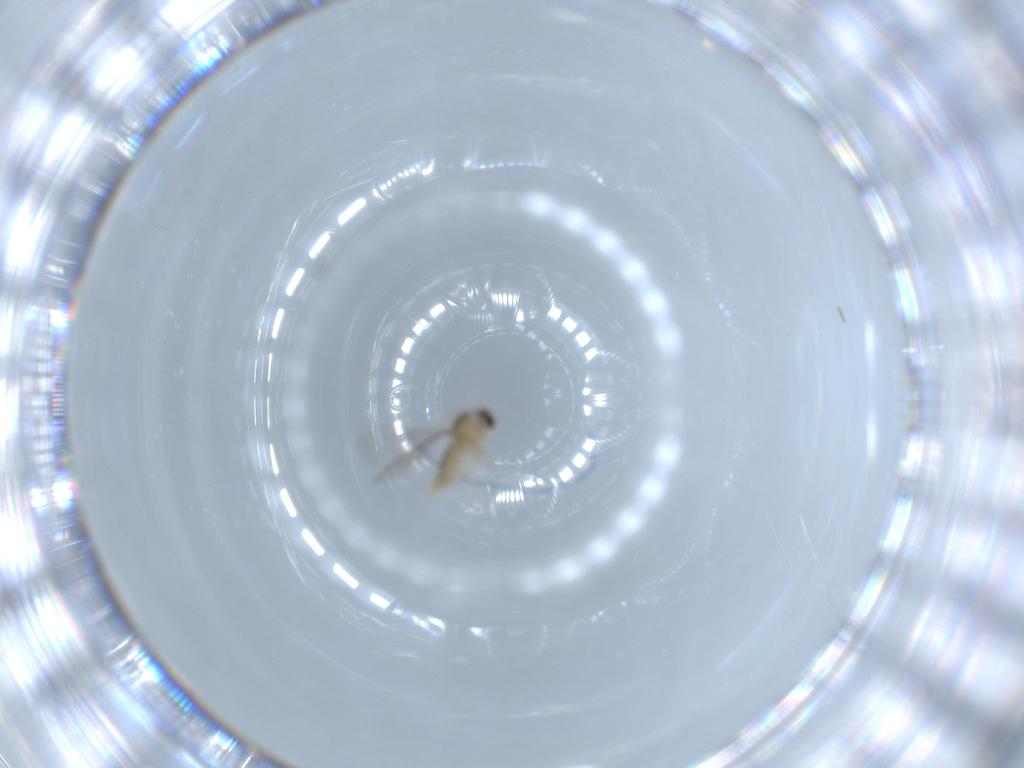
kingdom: Animalia
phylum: Arthropoda
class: Insecta
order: Diptera
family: Cecidomyiidae
